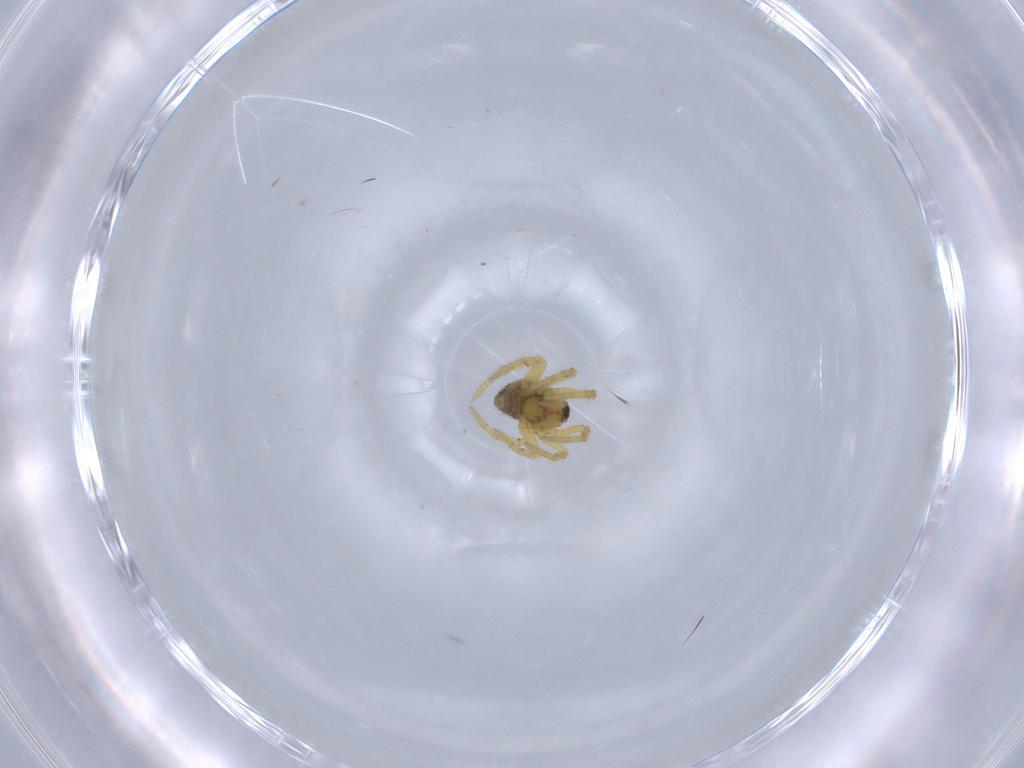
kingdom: Animalia
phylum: Arthropoda
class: Arachnida
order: Araneae
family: Theridiidae
